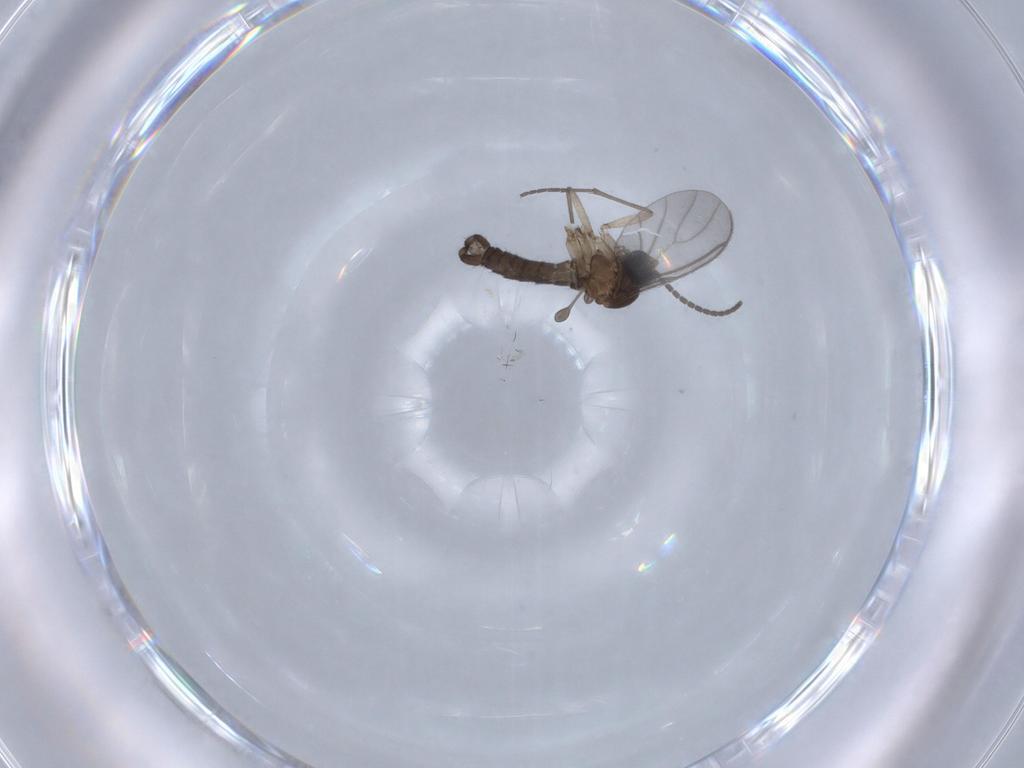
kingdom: Animalia
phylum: Arthropoda
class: Insecta
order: Diptera
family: Sciaridae
